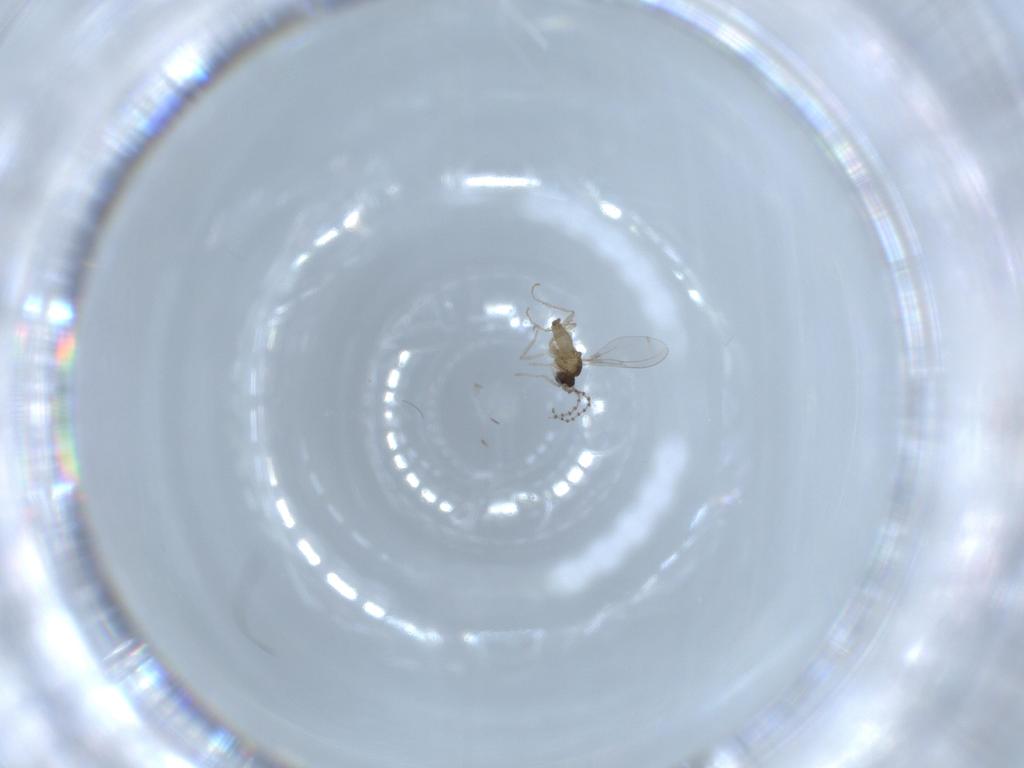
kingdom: Animalia
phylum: Arthropoda
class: Insecta
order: Diptera
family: Cecidomyiidae
